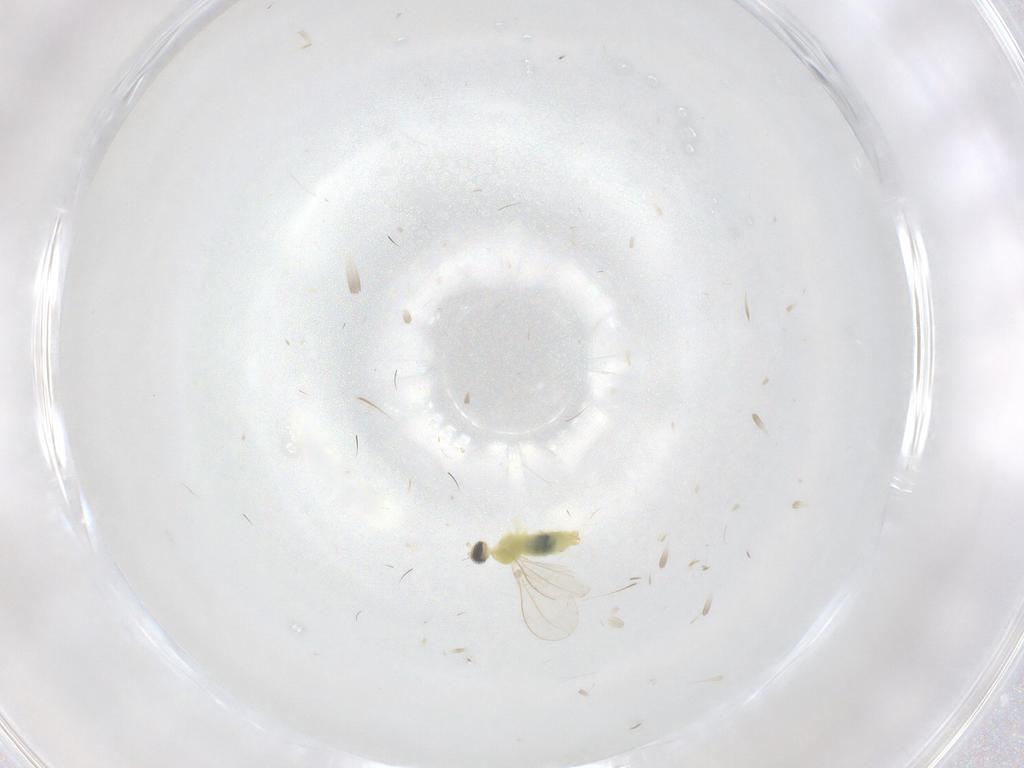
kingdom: Animalia
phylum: Arthropoda
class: Insecta
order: Diptera
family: Cecidomyiidae
